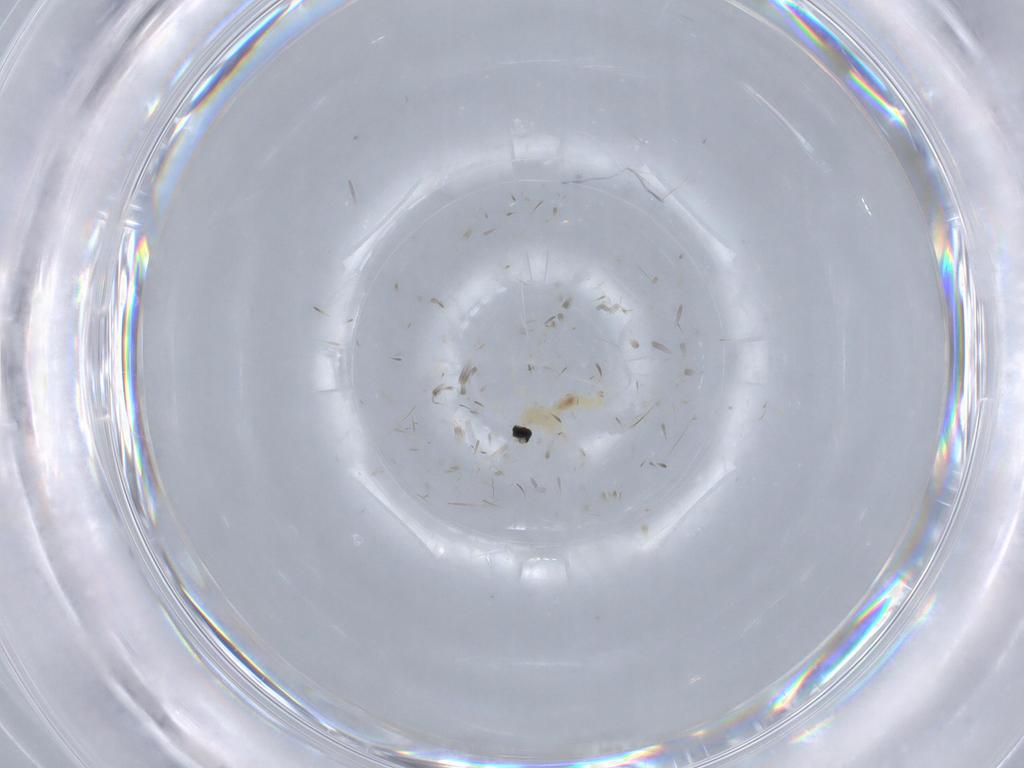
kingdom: Animalia
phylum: Arthropoda
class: Insecta
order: Diptera
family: Cecidomyiidae
